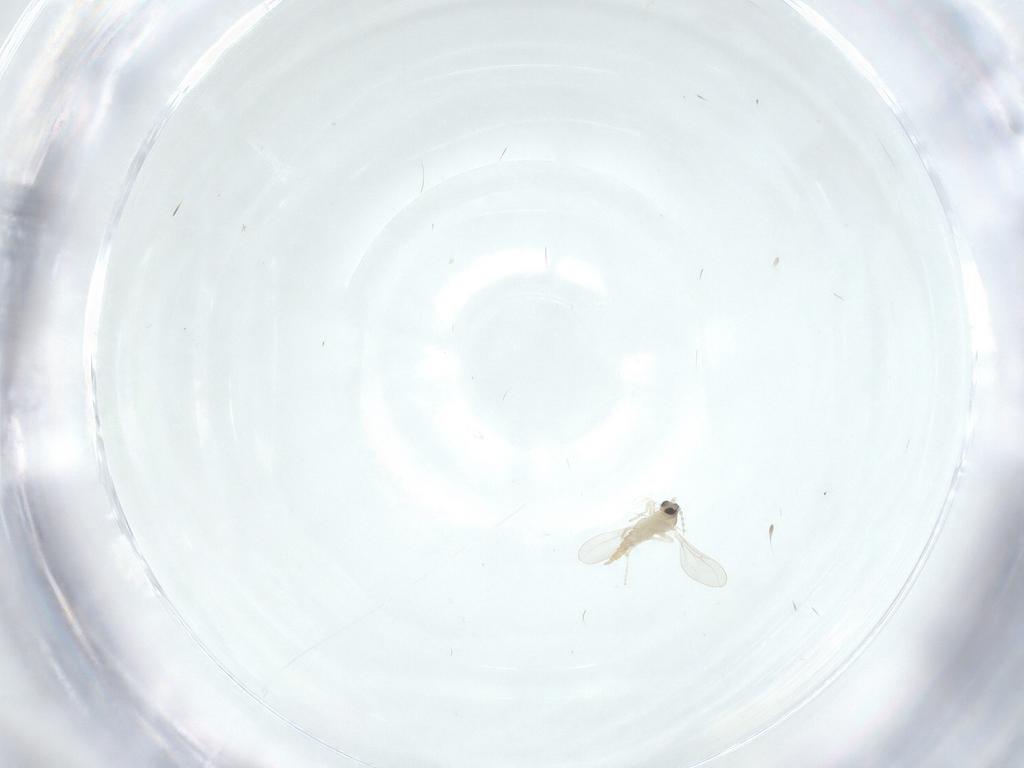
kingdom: Animalia
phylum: Arthropoda
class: Insecta
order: Diptera
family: Cecidomyiidae
